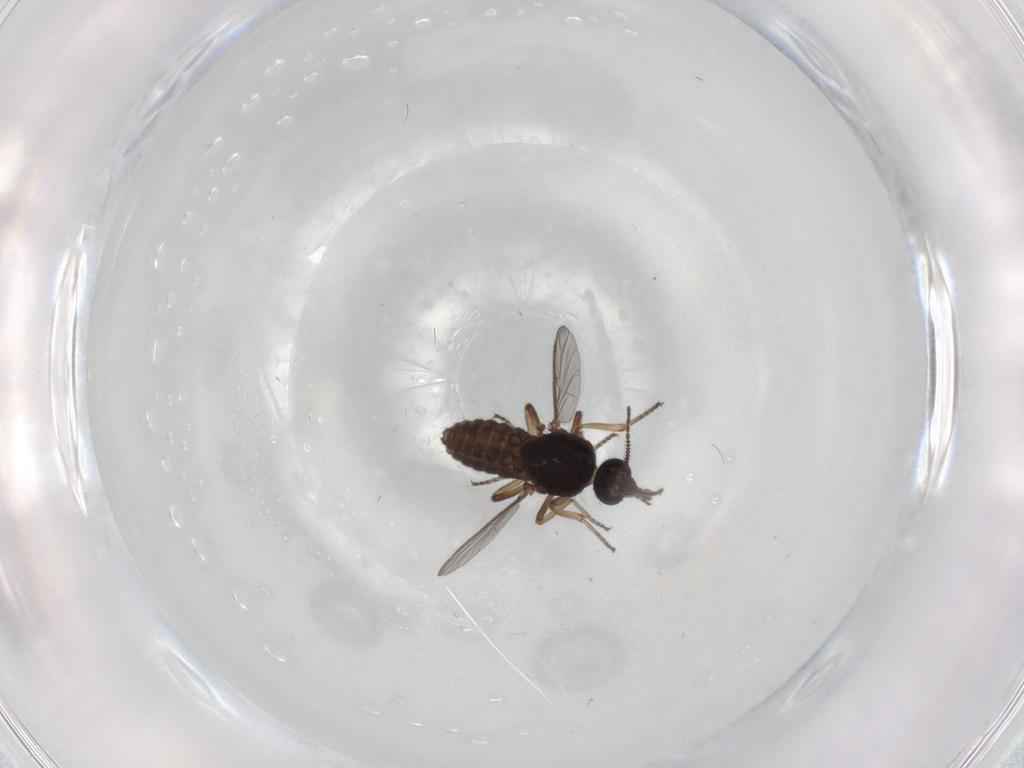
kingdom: Animalia
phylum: Arthropoda
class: Insecta
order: Diptera
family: Ceratopogonidae
